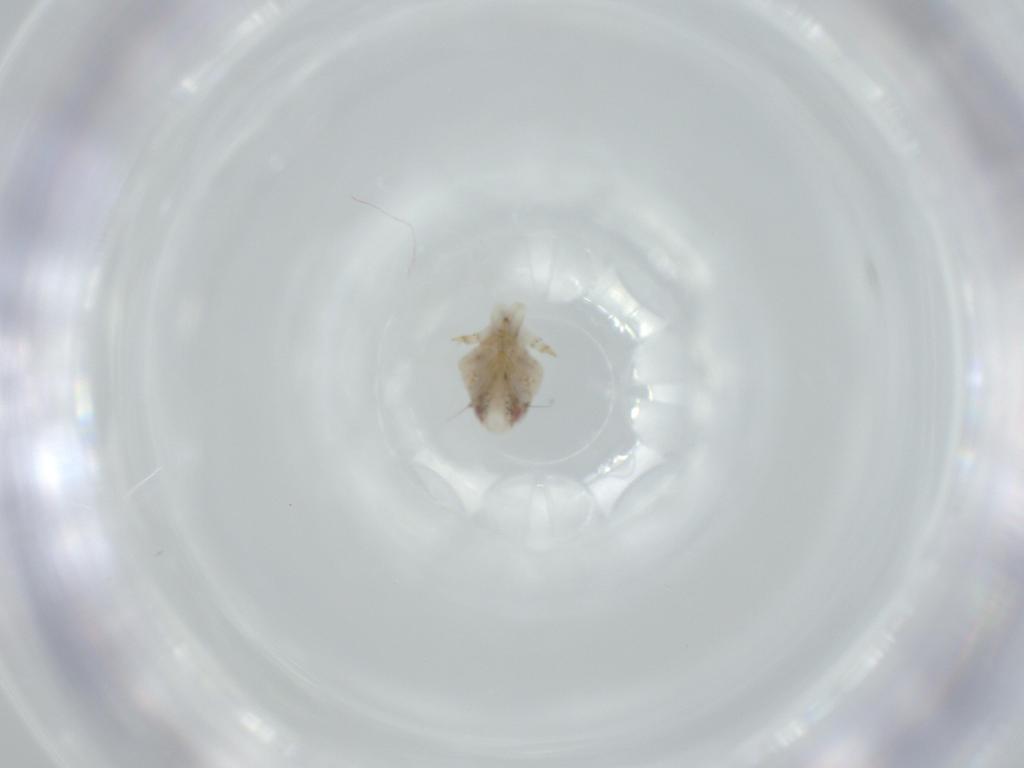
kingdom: Animalia
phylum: Arthropoda
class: Insecta
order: Hemiptera
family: Acanaloniidae
